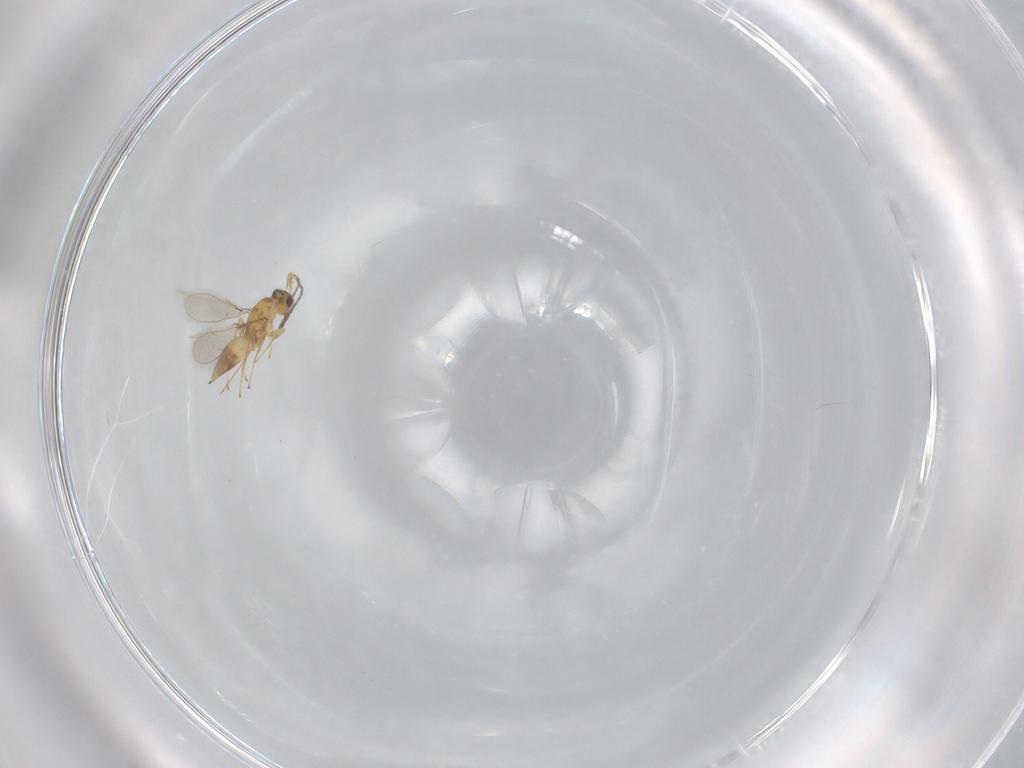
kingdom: Animalia
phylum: Arthropoda
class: Insecta
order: Hymenoptera
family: Mymaridae
